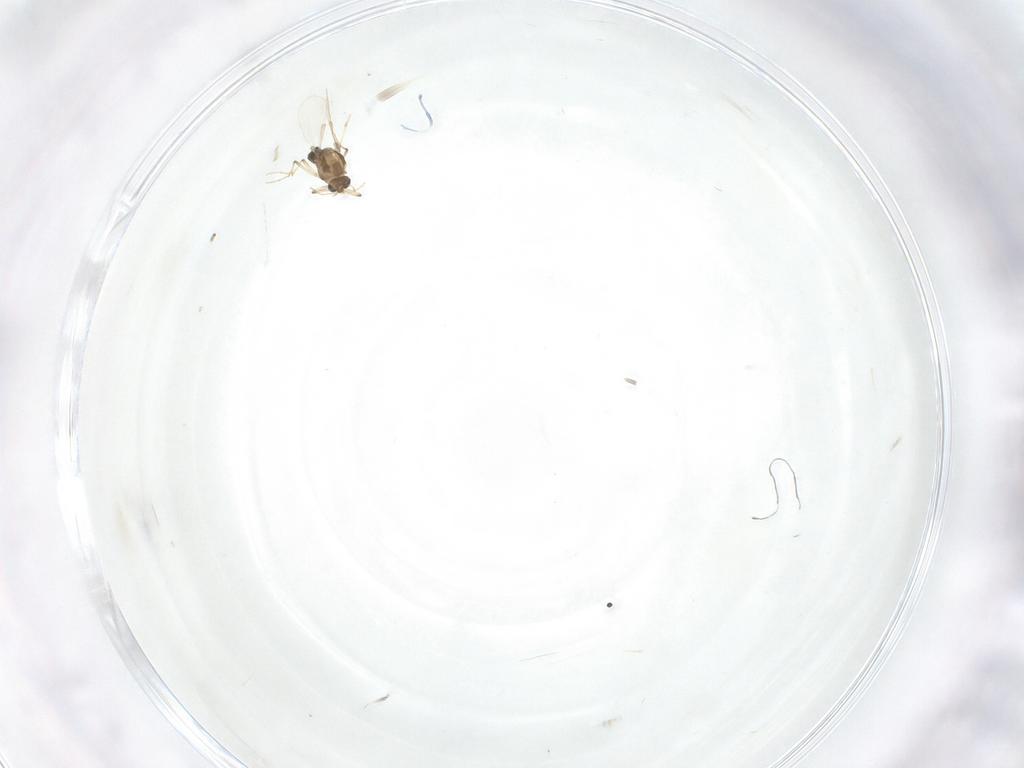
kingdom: Animalia
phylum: Arthropoda
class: Insecta
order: Diptera
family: Chironomidae
